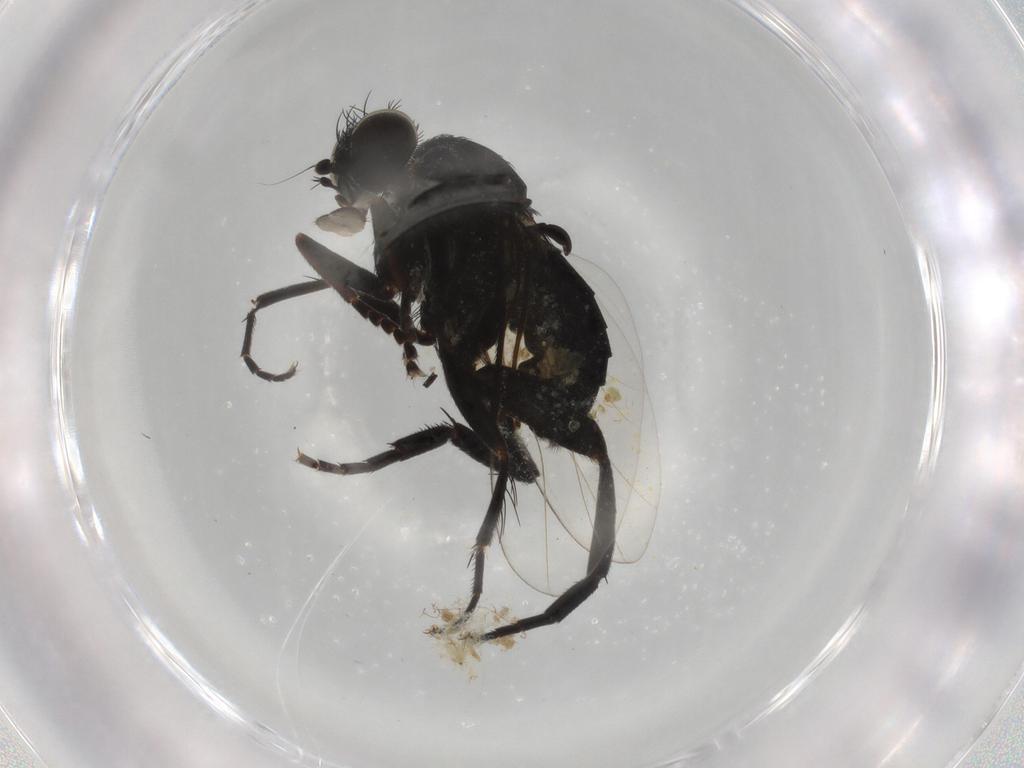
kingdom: Animalia
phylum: Arthropoda
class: Insecta
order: Diptera
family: Phoridae
